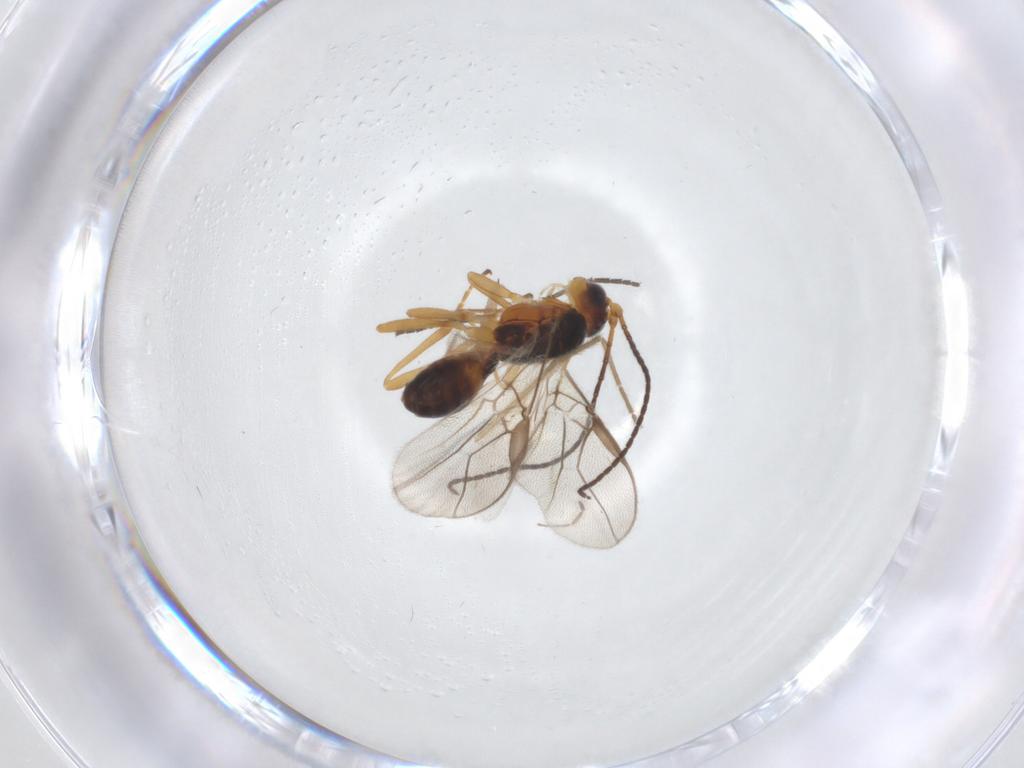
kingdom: Animalia
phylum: Arthropoda
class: Insecta
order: Hymenoptera
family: Braconidae
